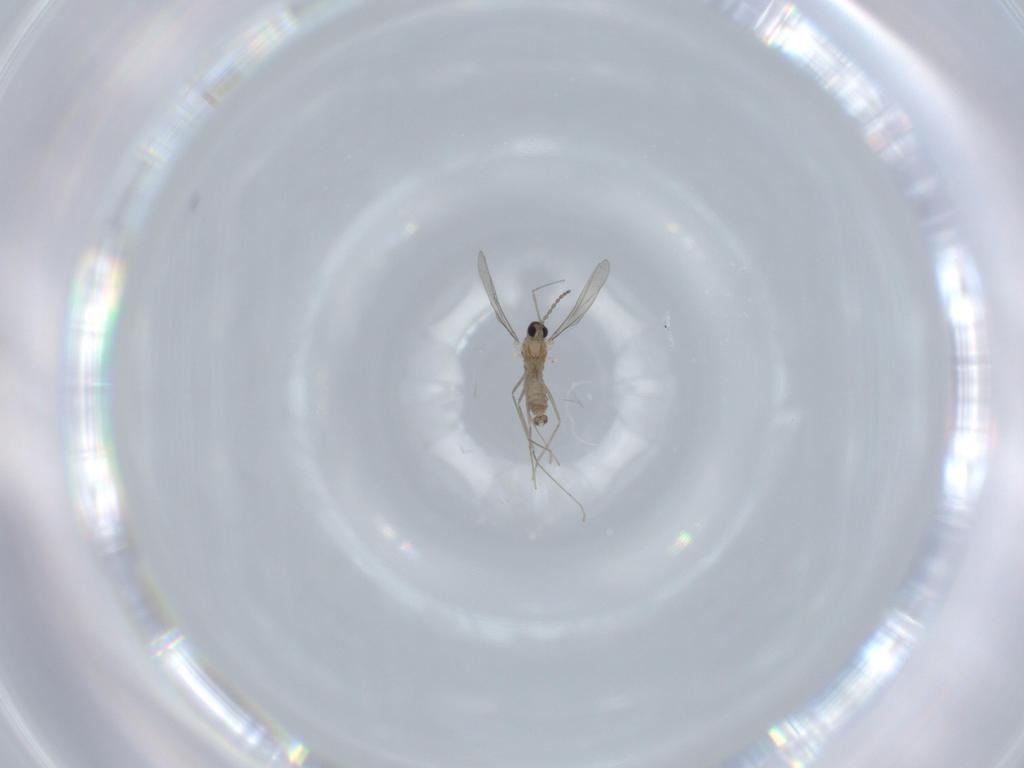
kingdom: Animalia
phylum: Arthropoda
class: Insecta
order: Diptera
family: Cecidomyiidae
